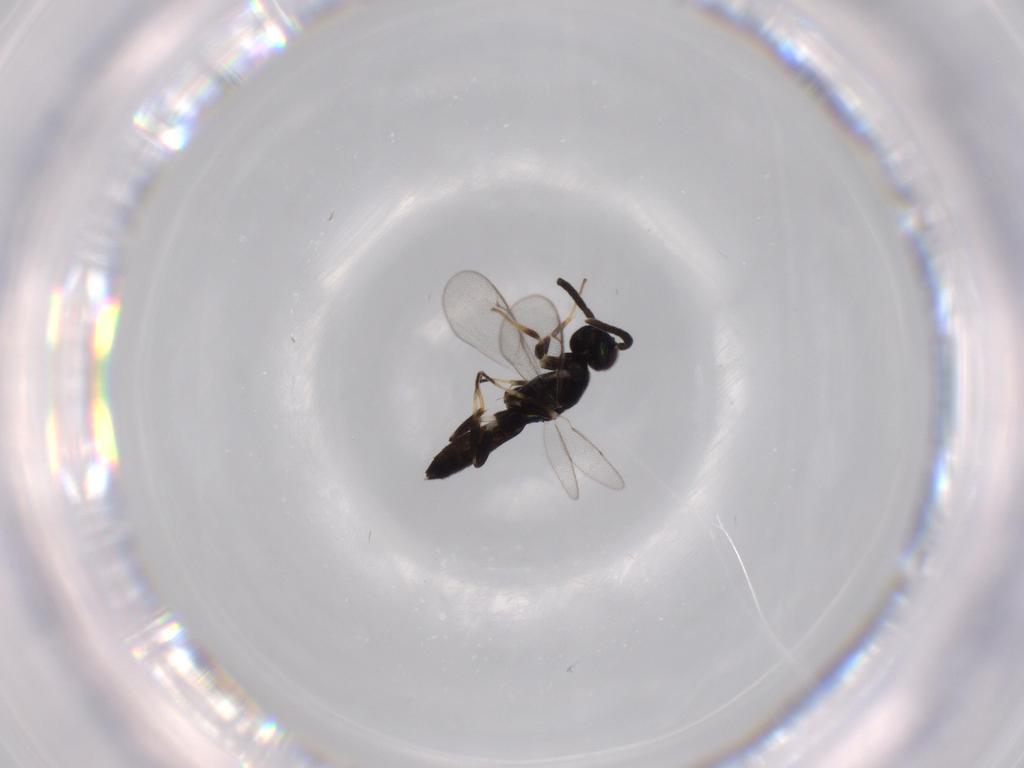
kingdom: Animalia
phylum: Arthropoda
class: Insecta
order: Hymenoptera
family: Eupelmidae
